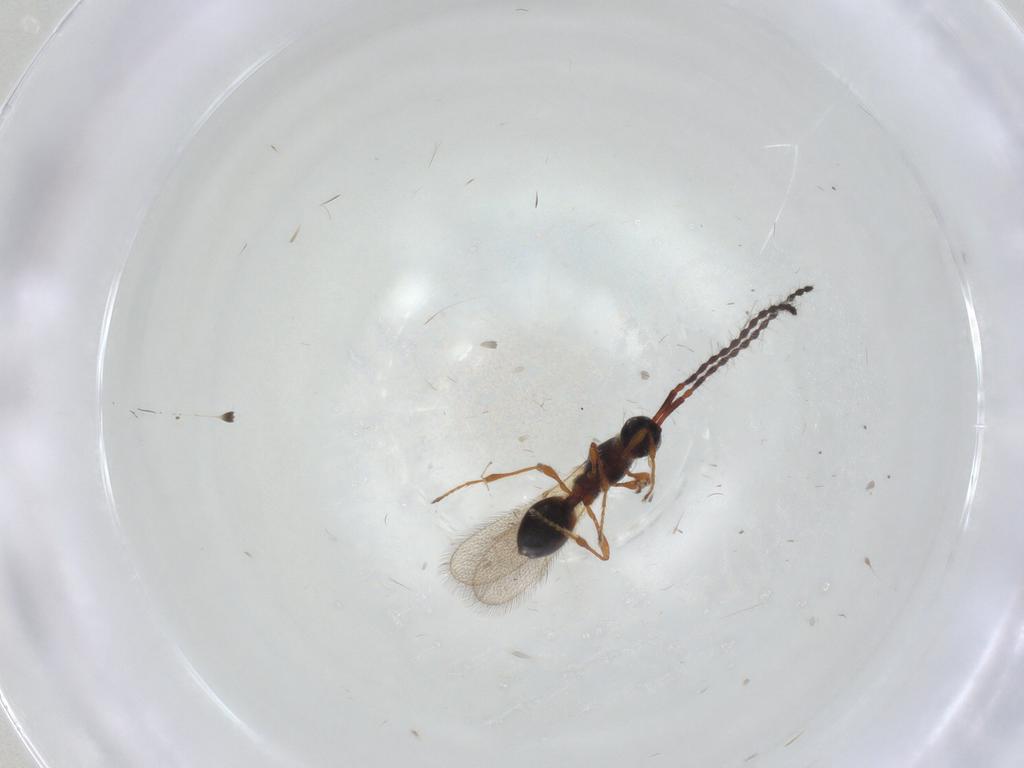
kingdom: Animalia
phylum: Arthropoda
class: Insecta
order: Hymenoptera
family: Diapriidae
